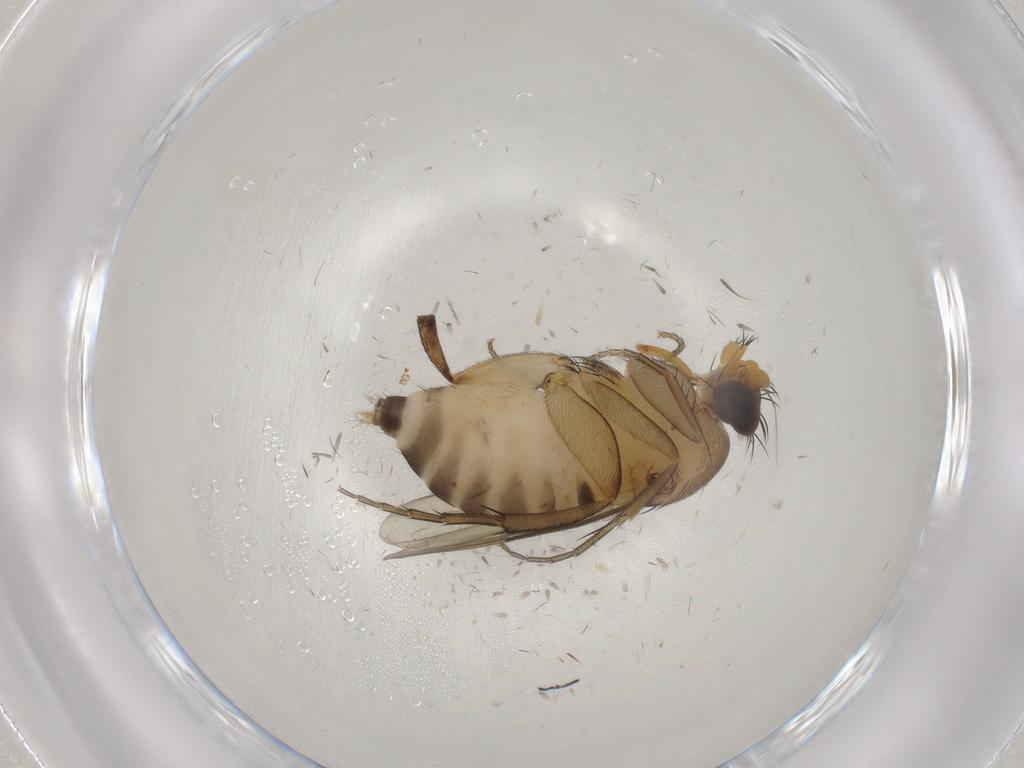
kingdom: Animalia
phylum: Arthropoda
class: Insecta
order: Diptera
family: Phoridae
